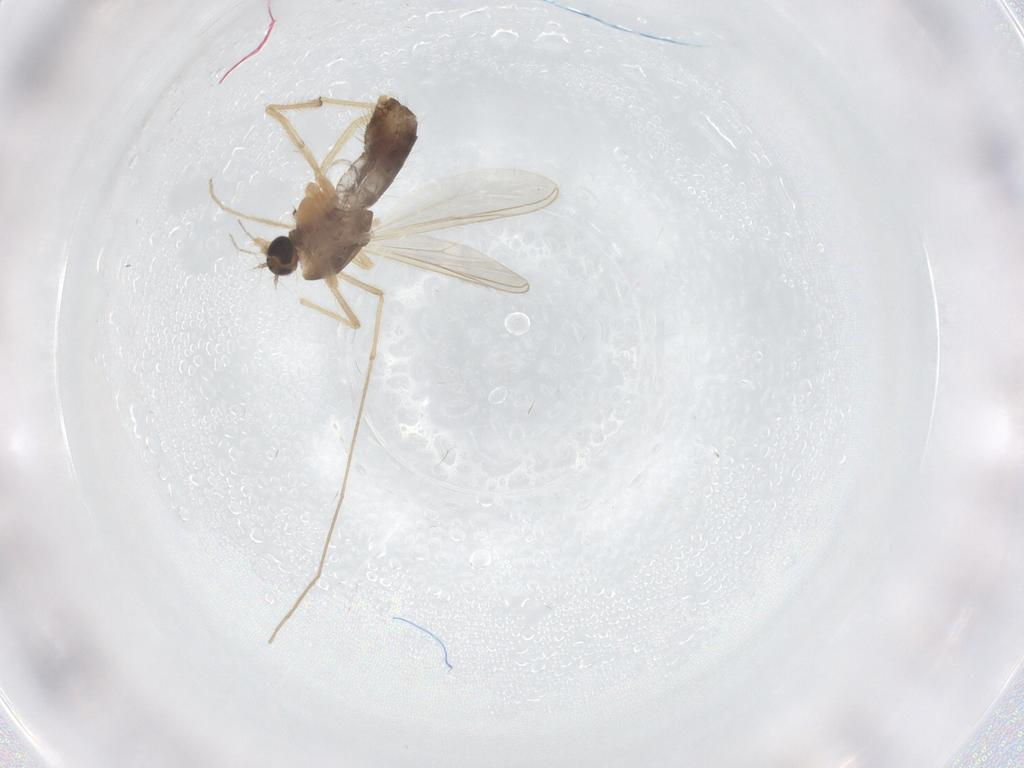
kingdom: Animalia
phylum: Arthropoda
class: Insecta
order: Diptera
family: Chironomidae
